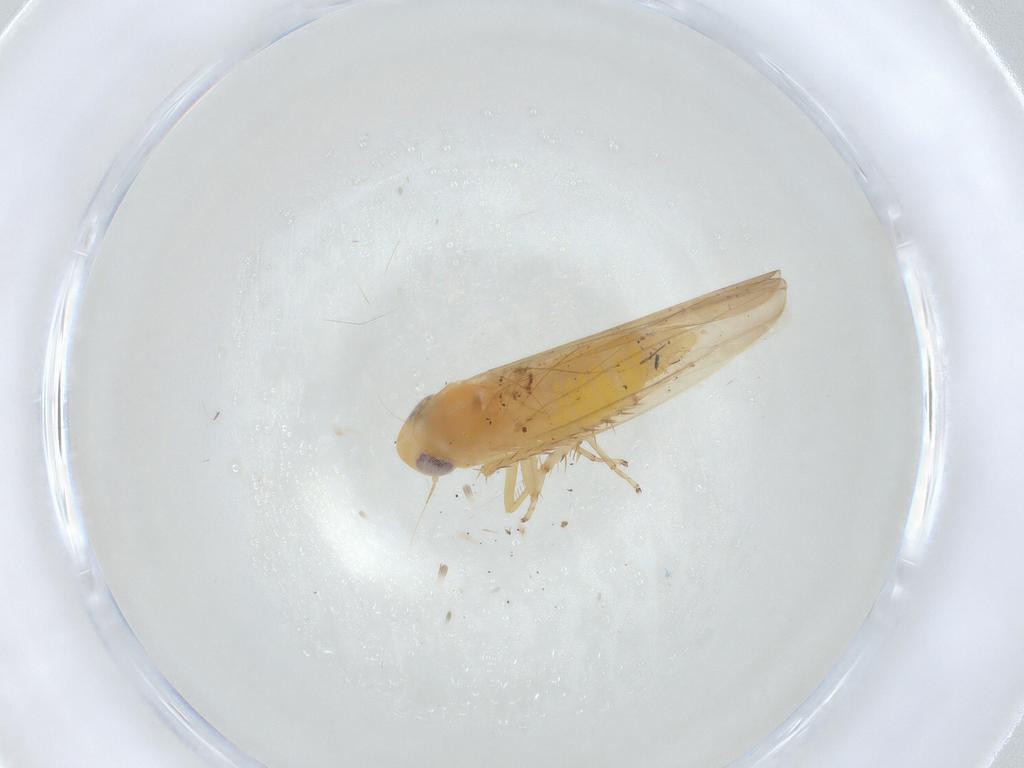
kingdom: Animalia
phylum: Arthropoda
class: Insecta
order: Hemiptera
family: Cicadellidae
